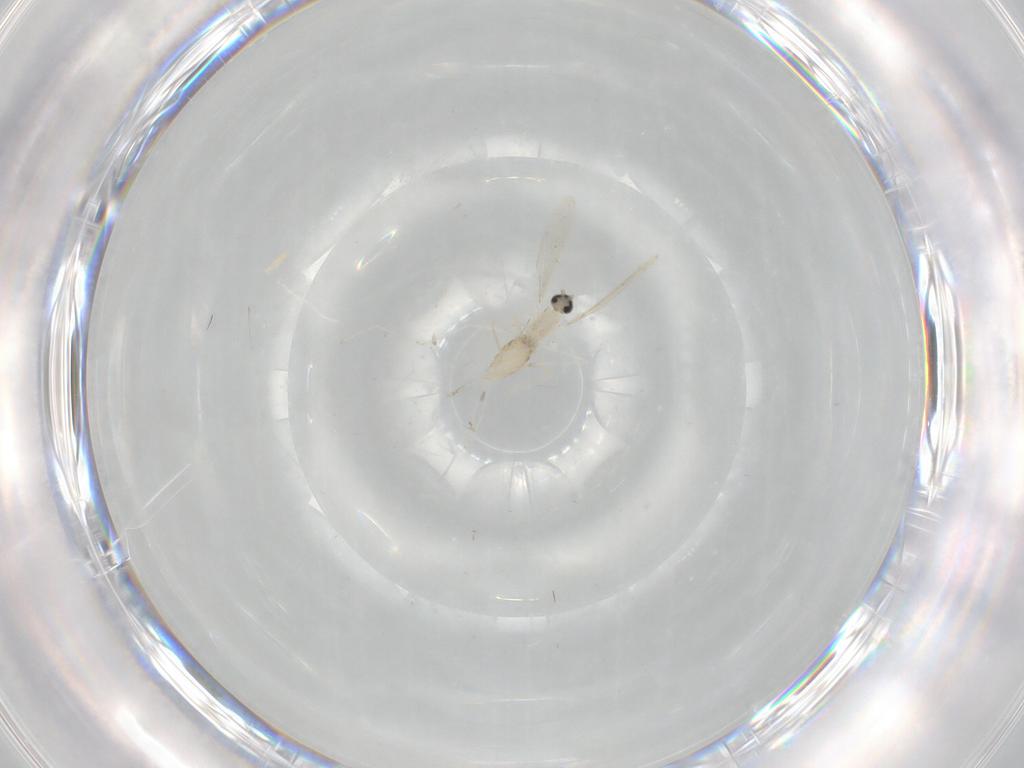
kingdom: Animalia
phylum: Arthropoda
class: Insecta
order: Diptera
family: Cecidomyiidae
